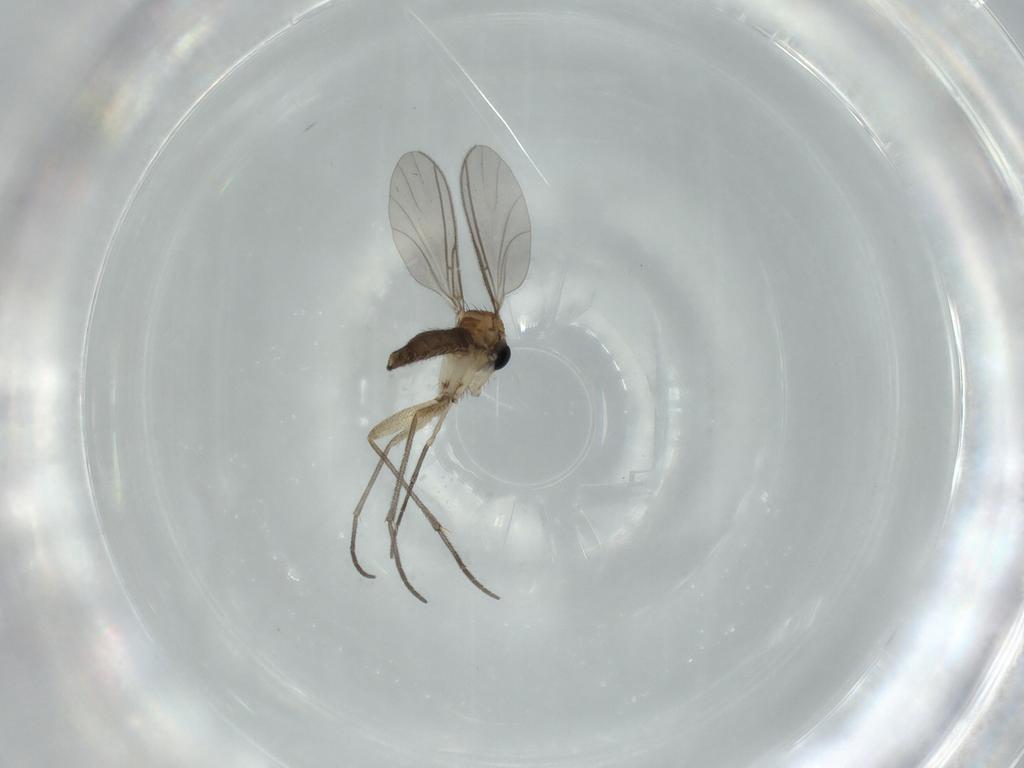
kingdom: Animalia
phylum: Arthropoda
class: Insecta
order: Diptera
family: Sciaridae
